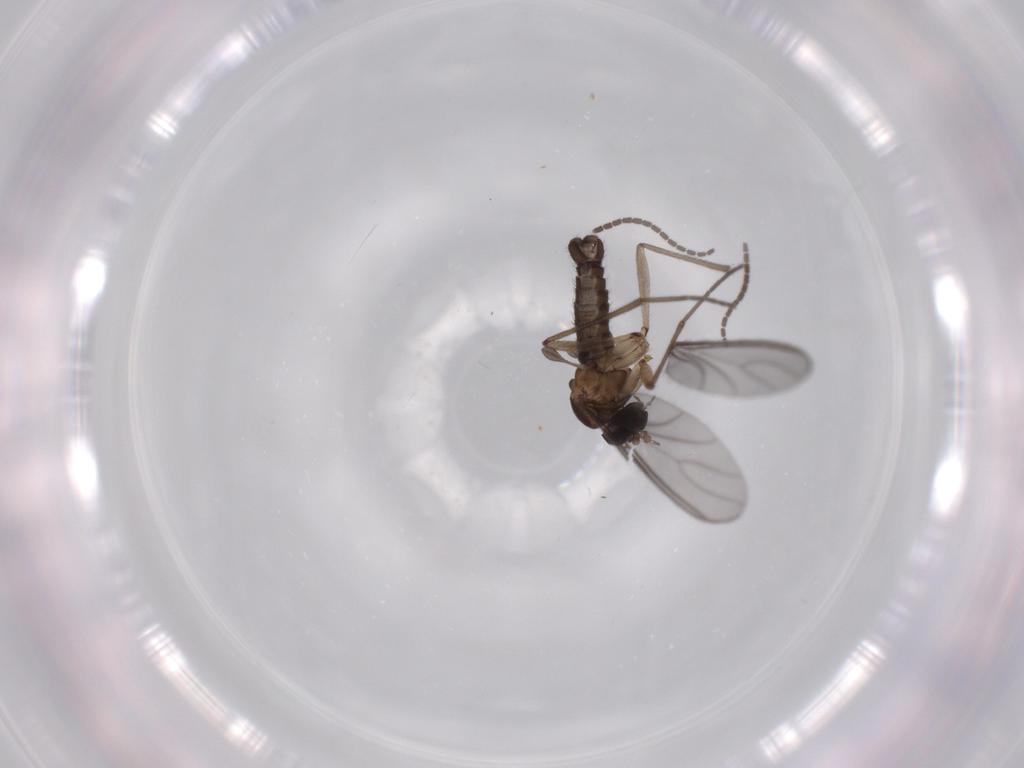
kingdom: Animalia
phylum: Arthropoda
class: Insecta
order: Diptera
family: Sciaridae
